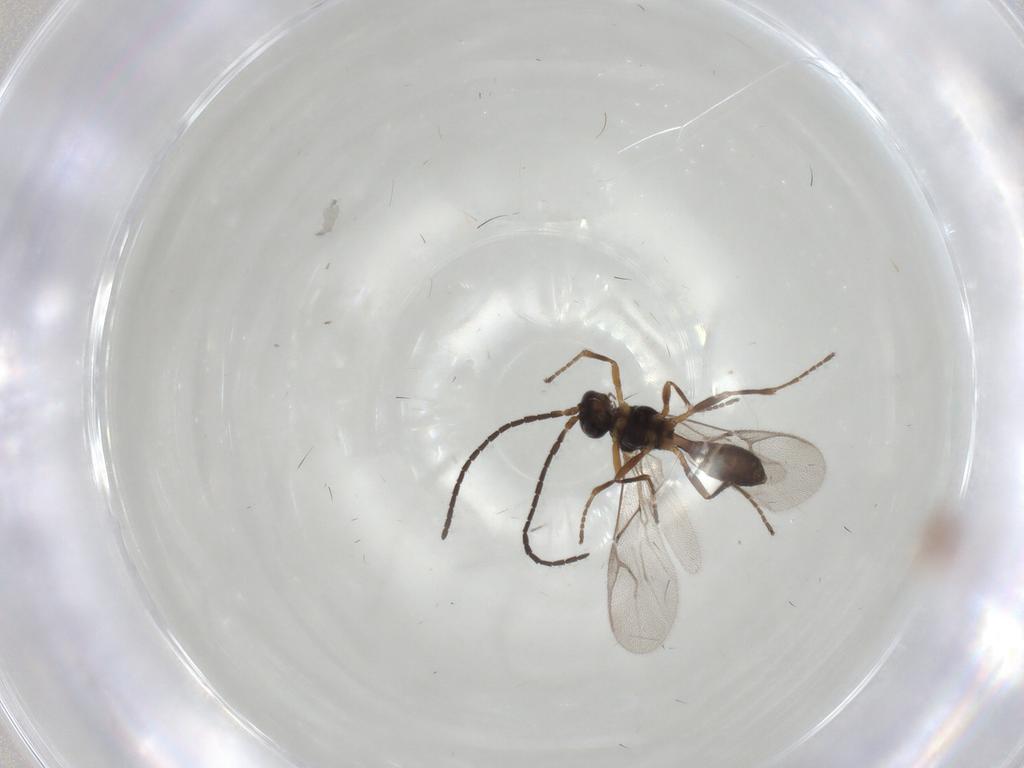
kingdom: Animalia
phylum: Arthropoda
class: Insecta
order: Hymenoptera
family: Braconidae
